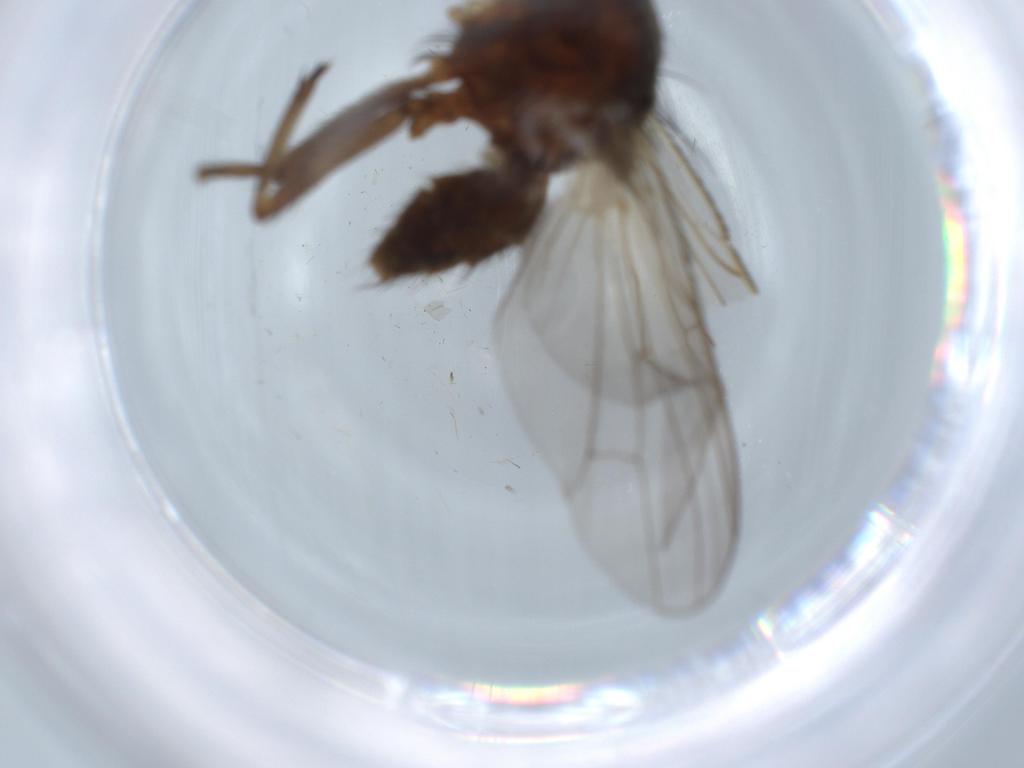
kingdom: Animalia
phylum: Arthropoda
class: Insecta
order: Diptera
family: Anthomyiidae
